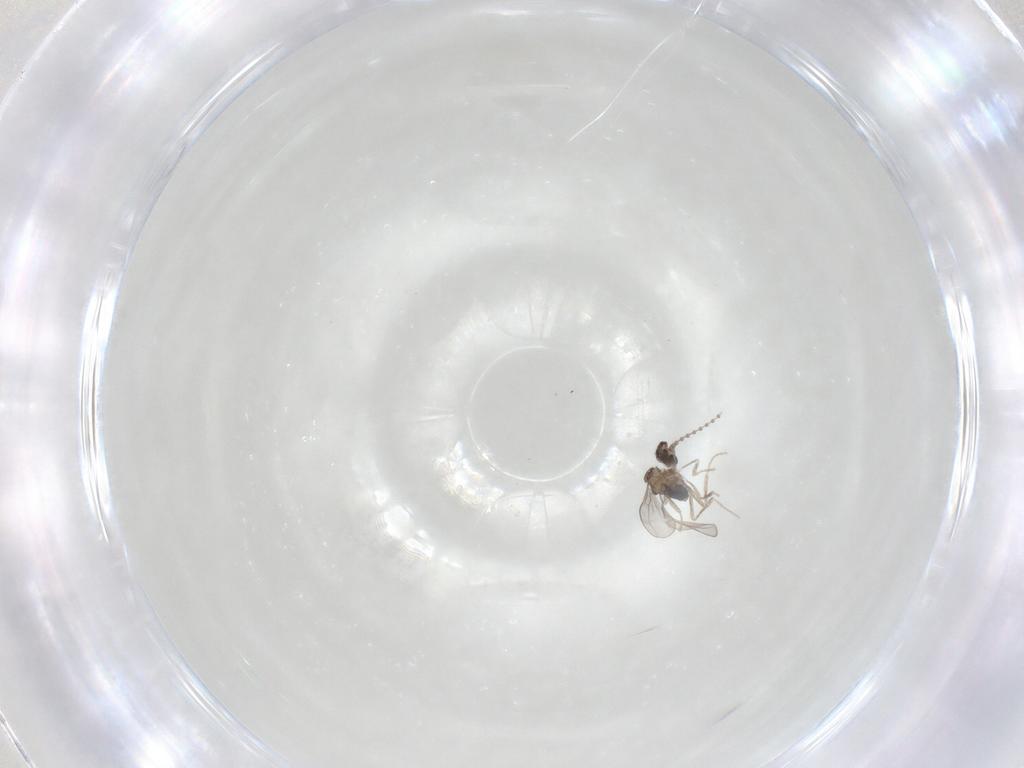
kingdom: Animalia
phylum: Arthropoda
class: Insecta
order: Diptera
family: Cecidomyiidae
